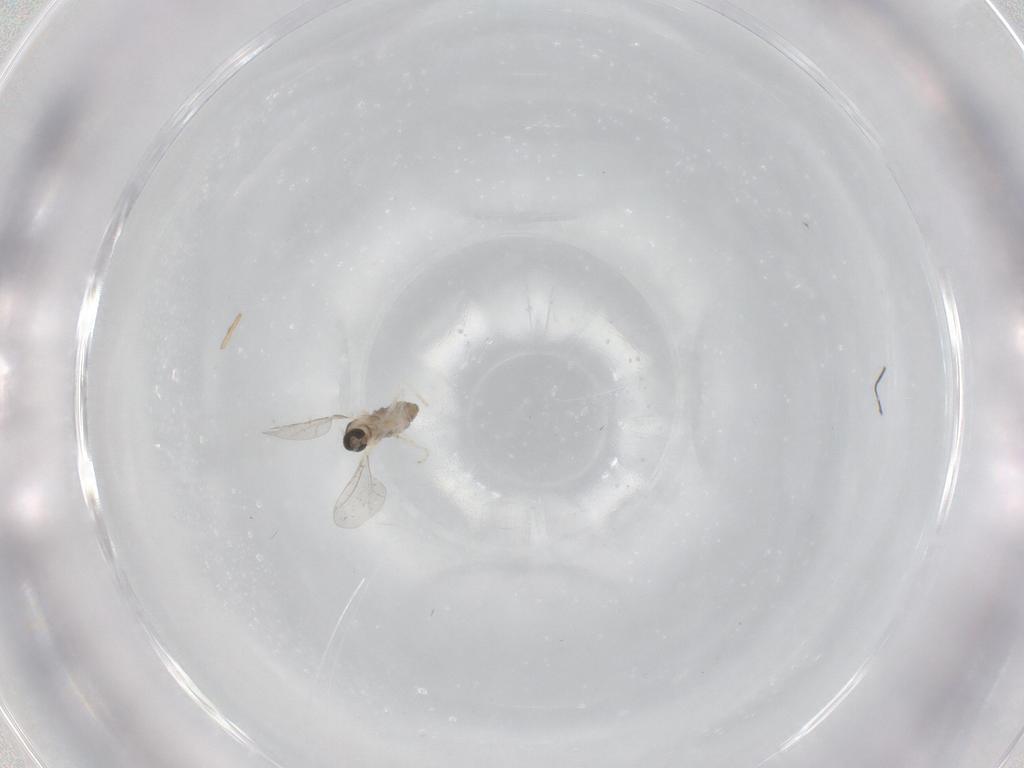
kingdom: Animalia
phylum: Arthropoda
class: Insecta
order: Diptera
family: Cecidomyiidae
